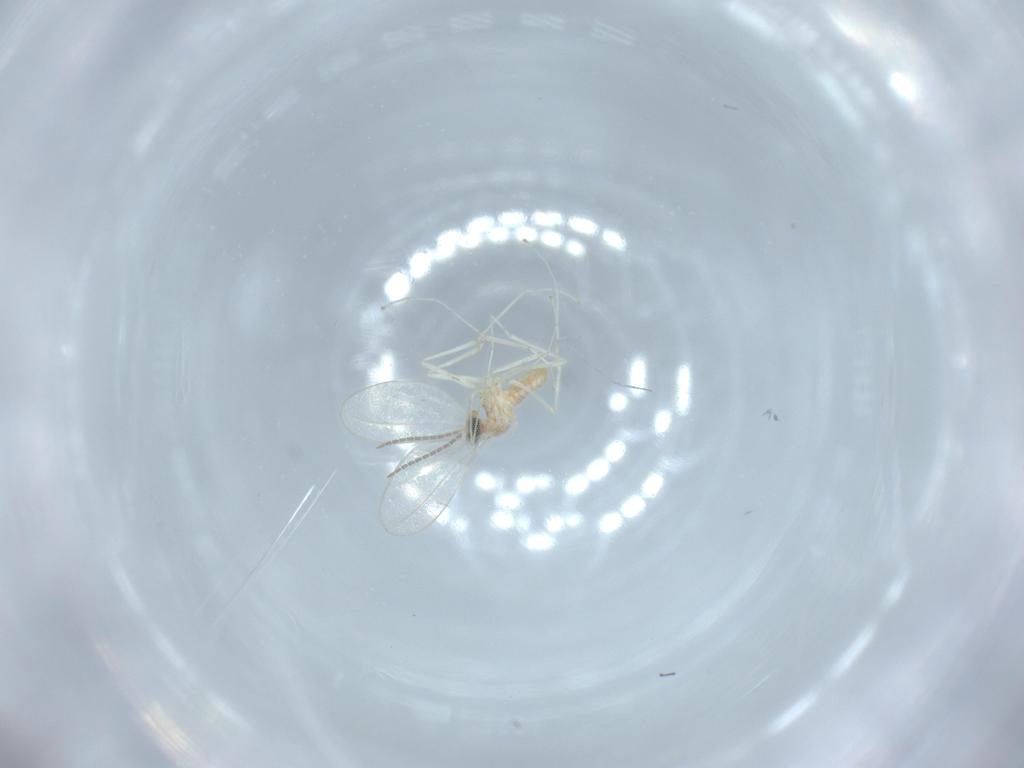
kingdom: Animalia
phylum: Arthropoda
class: Insecta
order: Diptera
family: Cecidomyiidae
